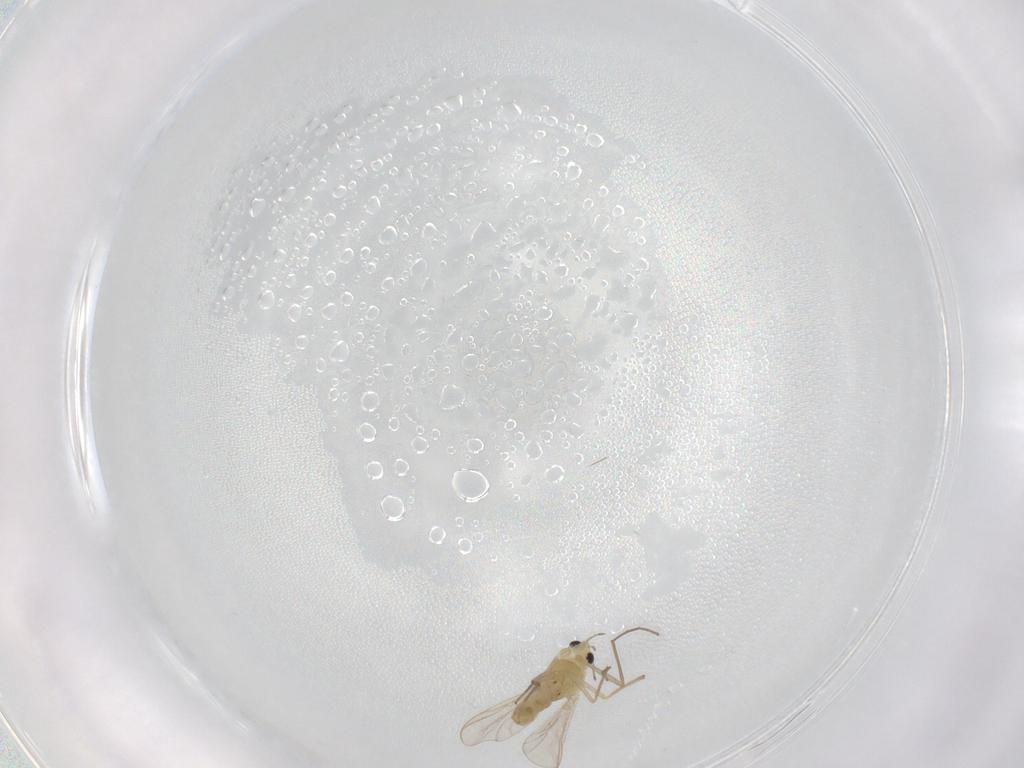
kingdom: Animalia
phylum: Arthropoda
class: Insecta
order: Diptera
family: Chironomidae
